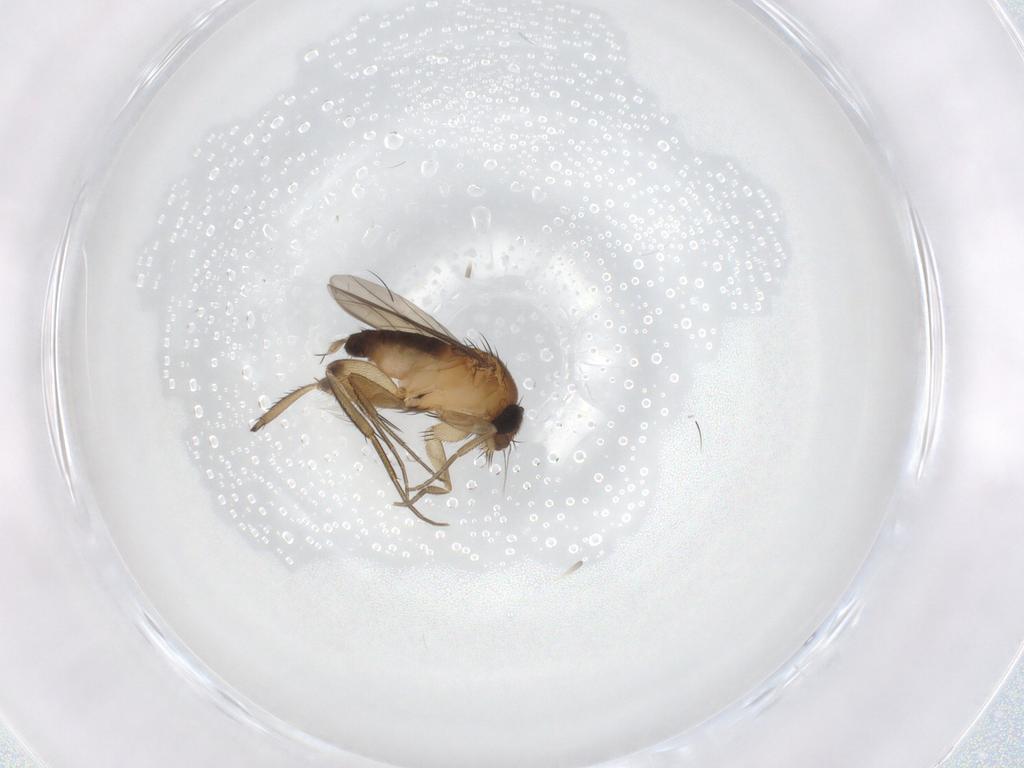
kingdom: Animalia
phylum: Arthropoda
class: Insecta
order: Diptera
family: Phoridae
